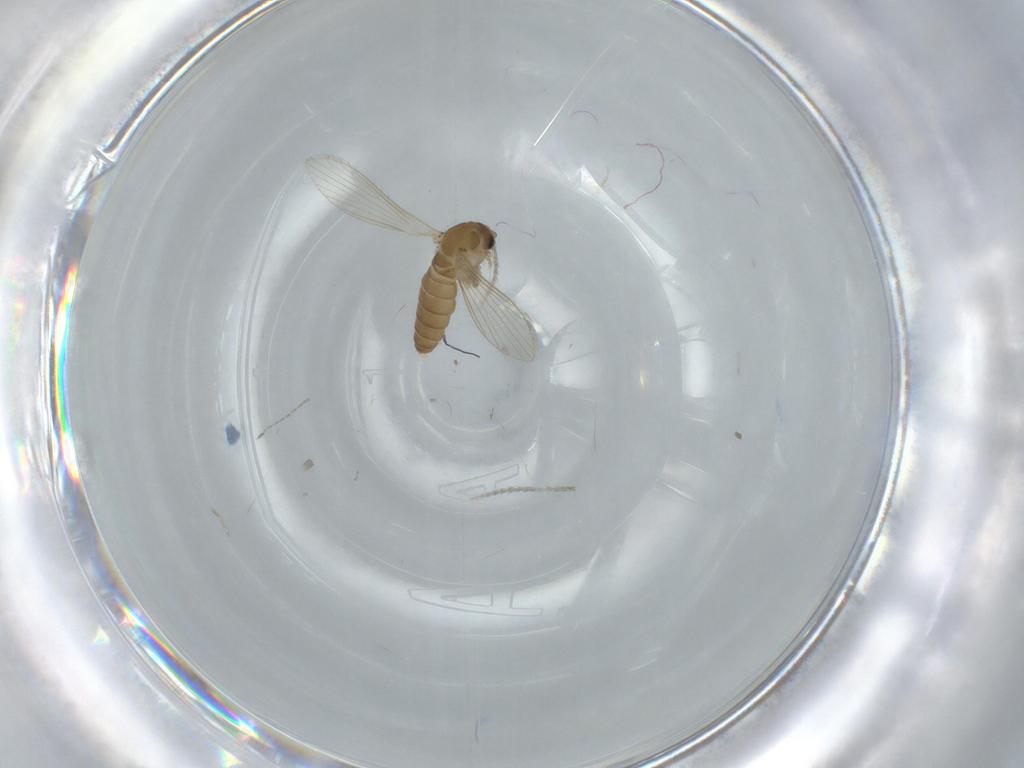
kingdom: Animalia
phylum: Arthropoda
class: Insecta
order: Diptera
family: Psychodidae
